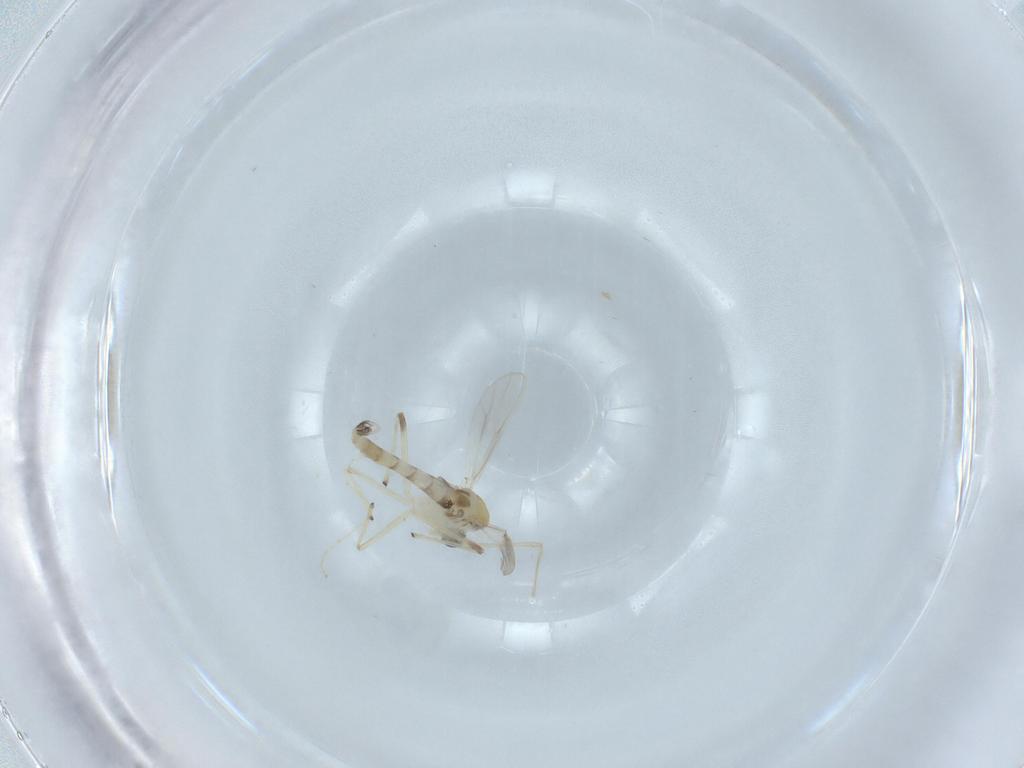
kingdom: Animalia
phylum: Arthropoda
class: Insecta
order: Diptera
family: Chironomidae
